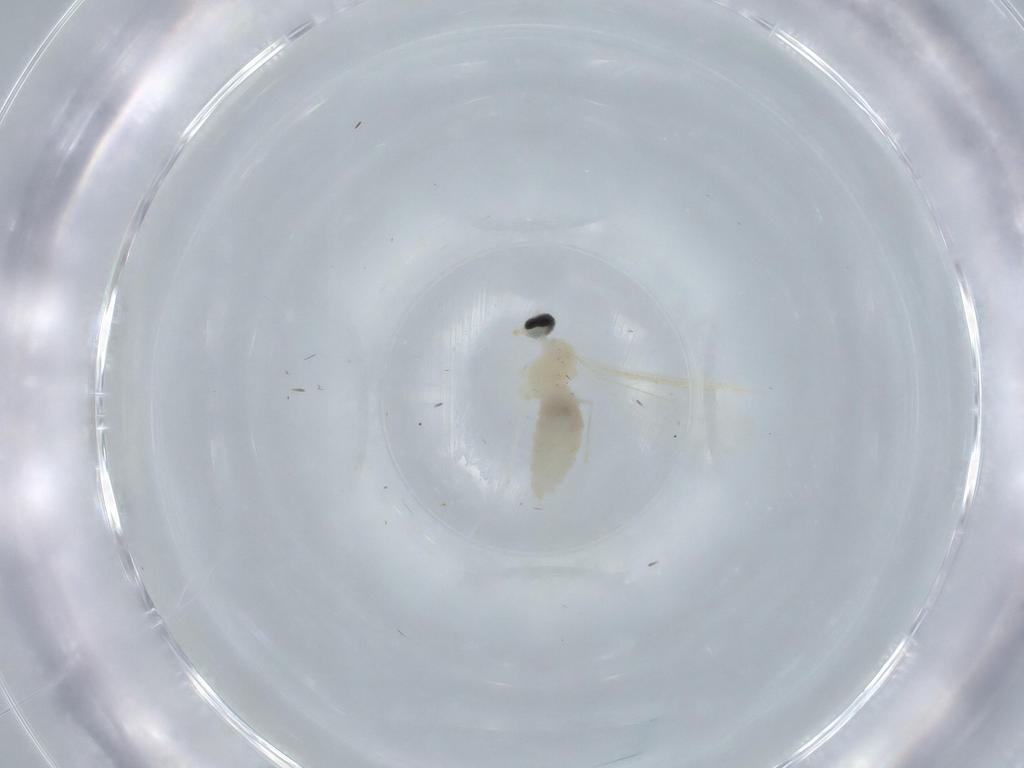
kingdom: Animalia
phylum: Arthropoda
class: Insecta
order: Diptera
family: Cecidomyiidae
